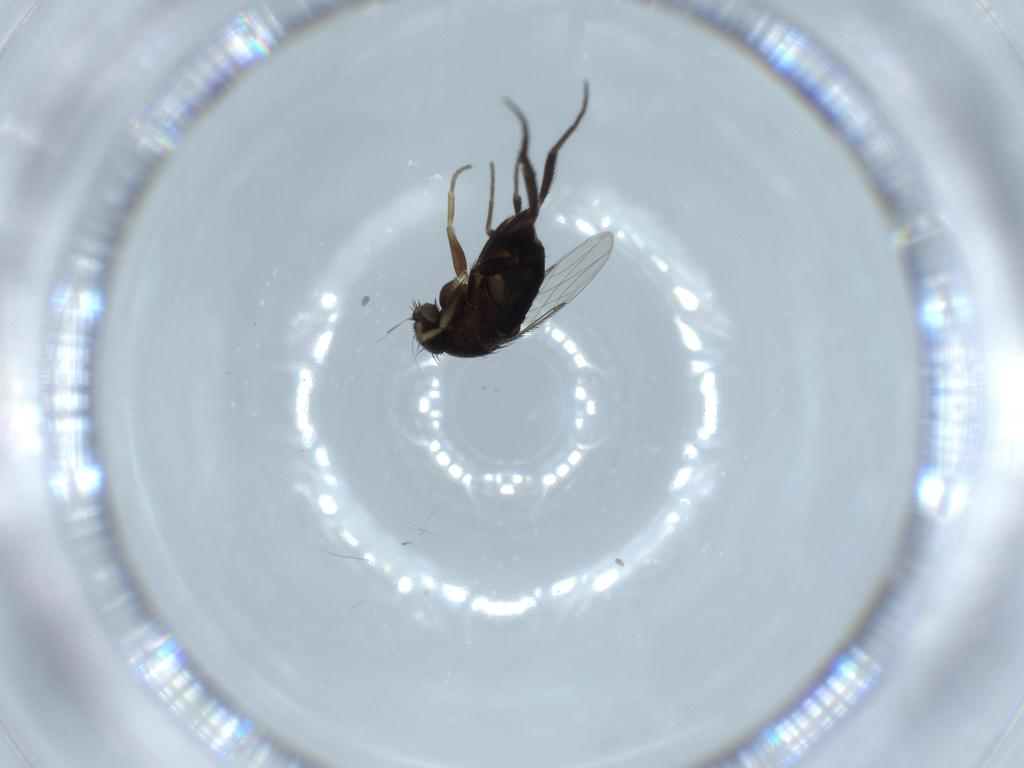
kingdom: Animalia
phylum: Arthropoda
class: Insecta
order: Diptera
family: Phoridae
